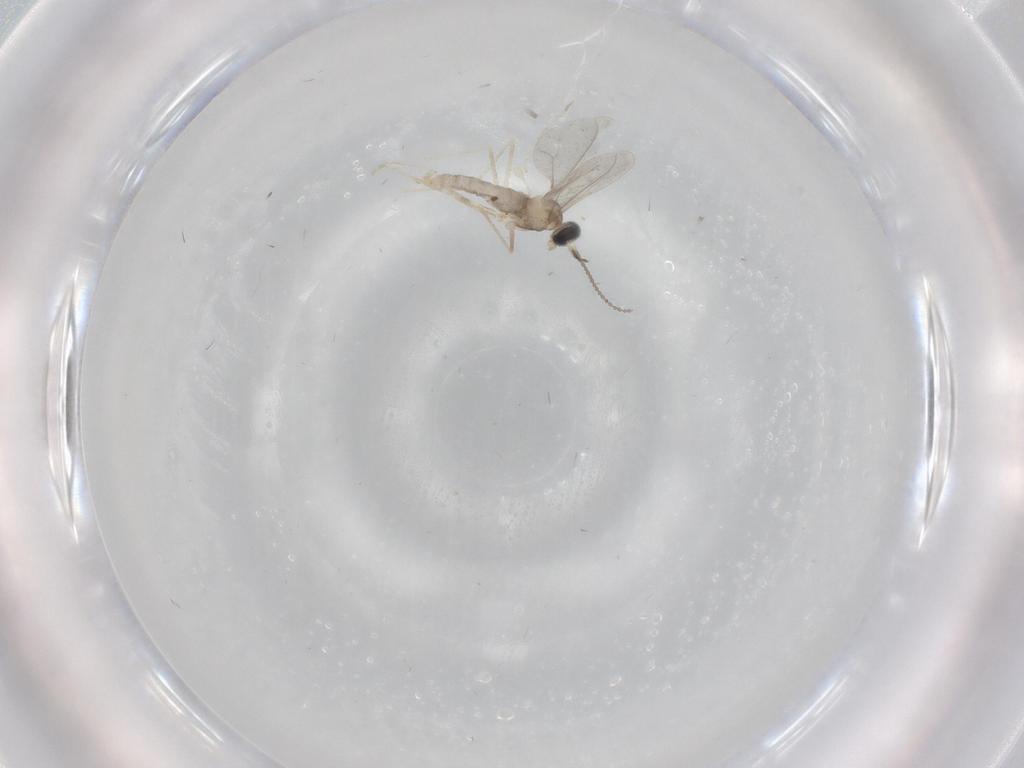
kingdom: Animalia
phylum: Arthropoda
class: Insecta
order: Diptera
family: Cecidomyiidae
